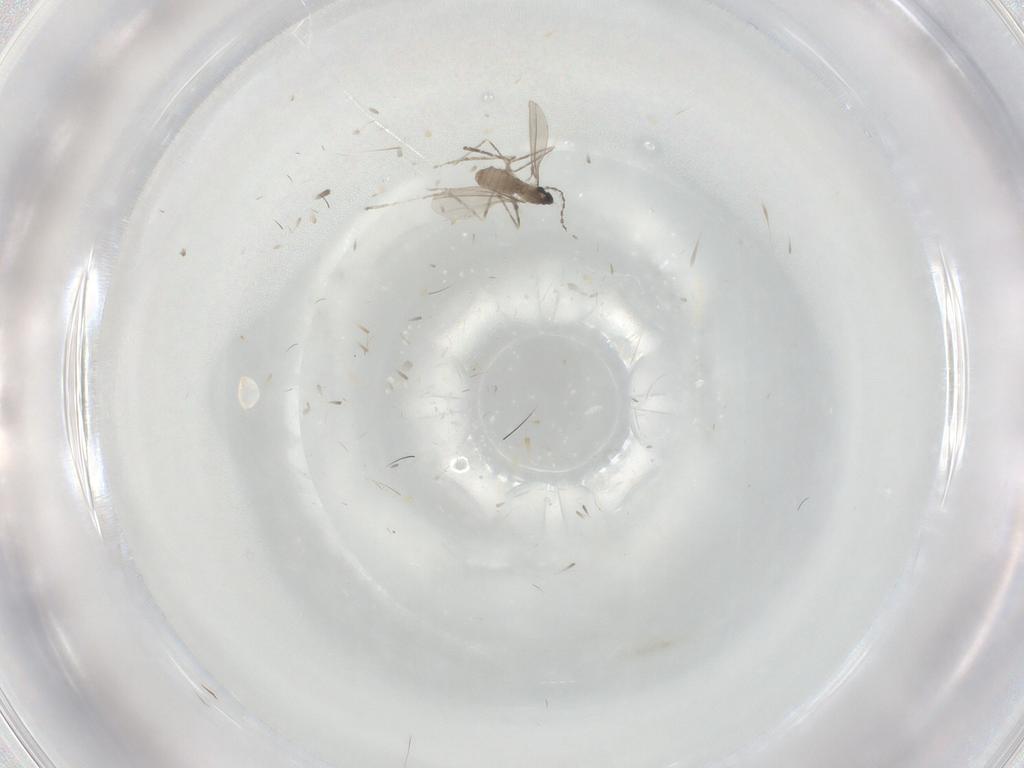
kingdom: Animalia
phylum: Arthropoda
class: Insecta
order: Diptera
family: Cecidomyiidae
